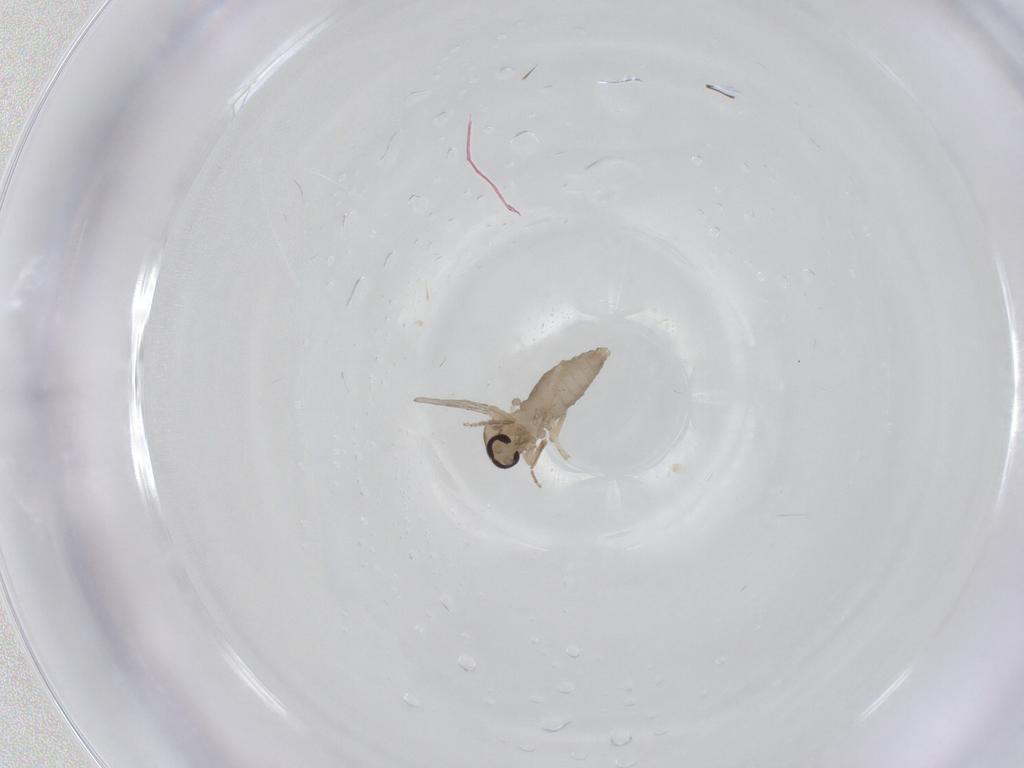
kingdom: Animalia
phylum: Arthropoda
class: Insecta
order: Diptera
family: Ceratopogonidae
